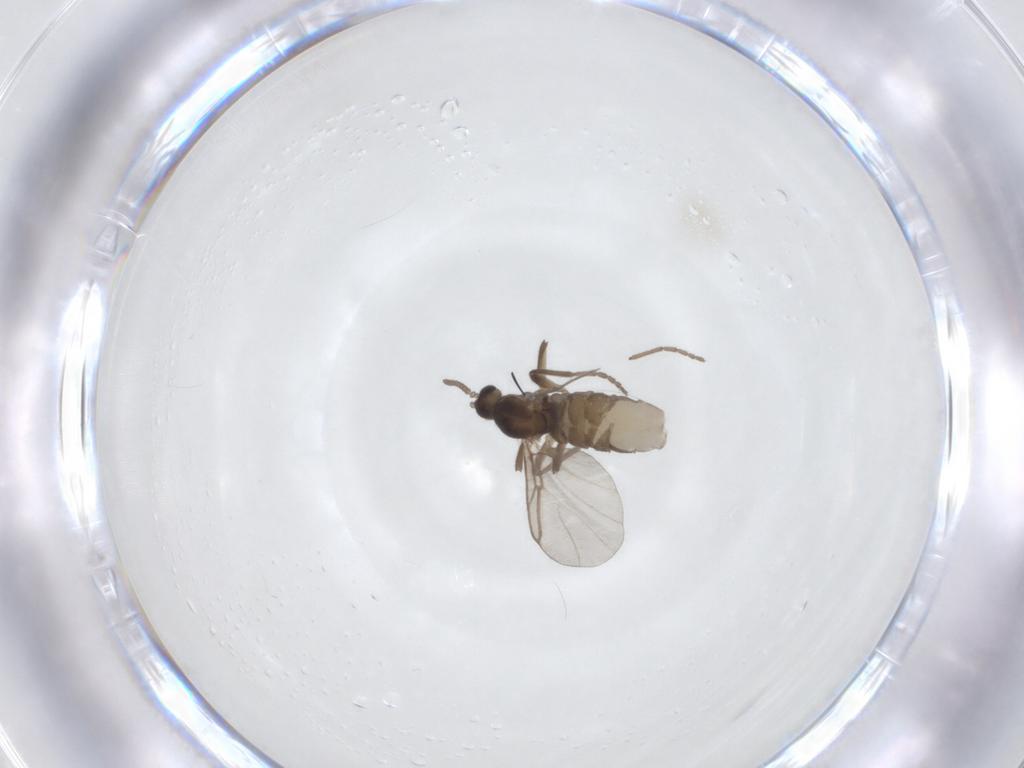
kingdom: Animalia
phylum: Arthropoda
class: Insecta
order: Diptera
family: Cecidomyiidae
